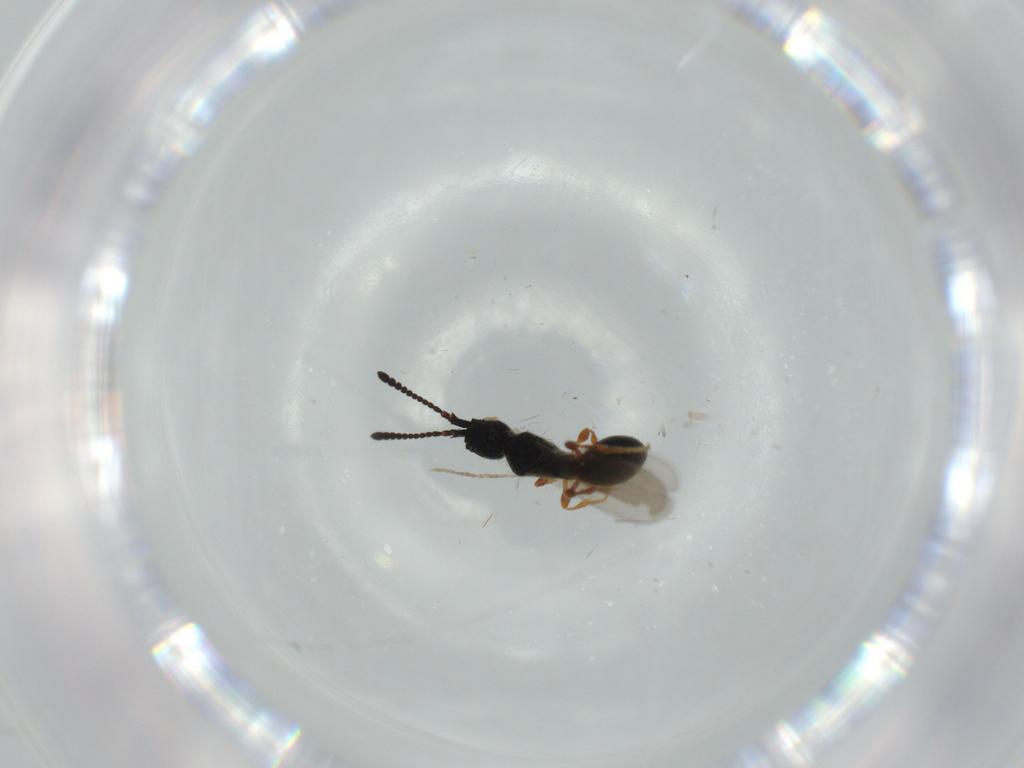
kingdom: Animalia
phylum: Arthropoda
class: Insecta
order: Hymenoptera
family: Diapriidae
